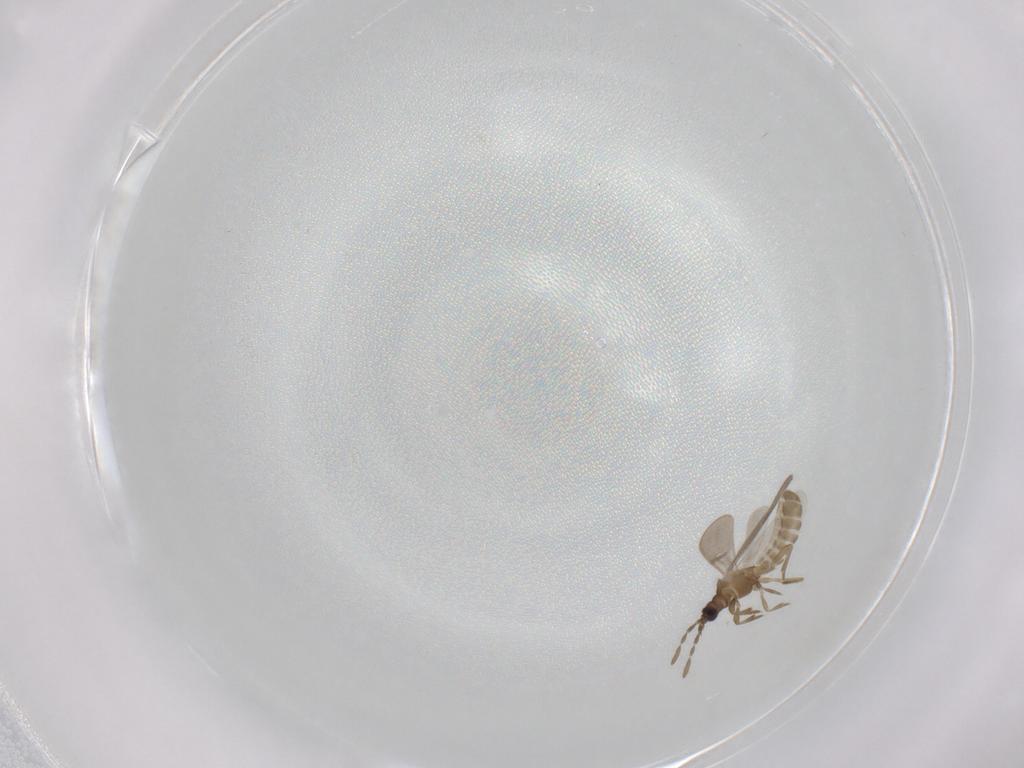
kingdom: Animalia
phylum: Arthropoda
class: Insecta
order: Hemiptera
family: Enicocephalidae
